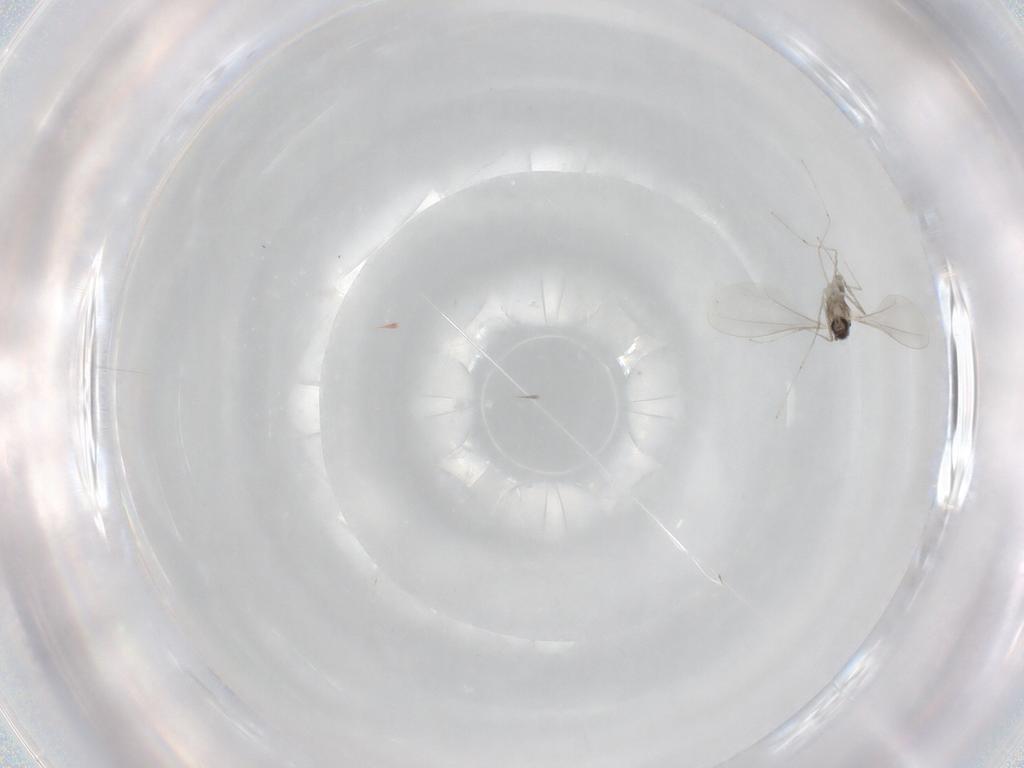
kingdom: Animalia
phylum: Arthropoda
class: Insecta
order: Diptera
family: Cecidomyiidae
